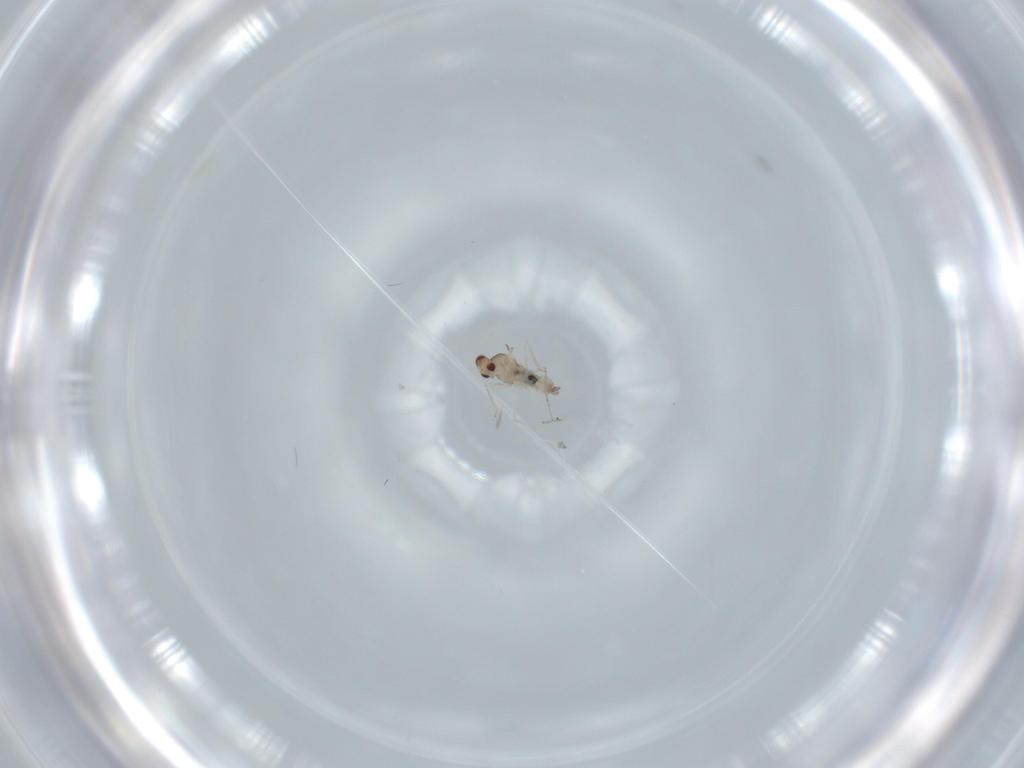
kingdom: Animalia
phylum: Arthropoda
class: Insecta
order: Diptera
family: Cecidomyiidae
